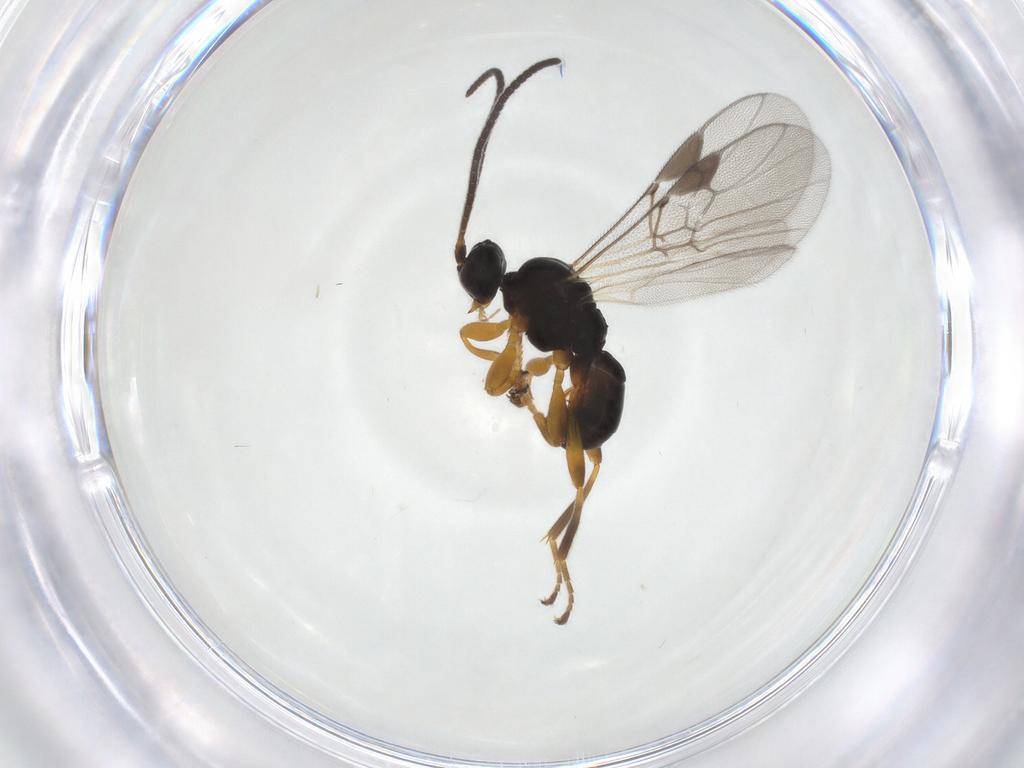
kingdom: Animalia
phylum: Arthropoda
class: Insecta
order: Hymenoptera
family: Braconidae
